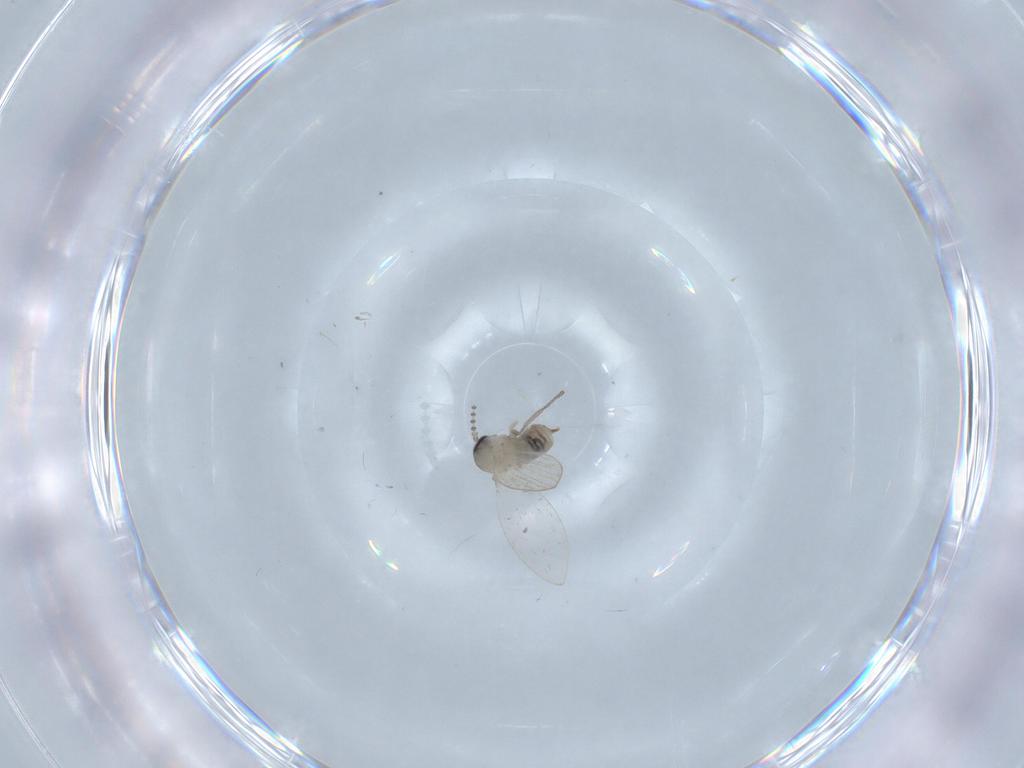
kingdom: Animalia
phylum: Arthropoda
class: Insecta
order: Diptera
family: Psychodidae
